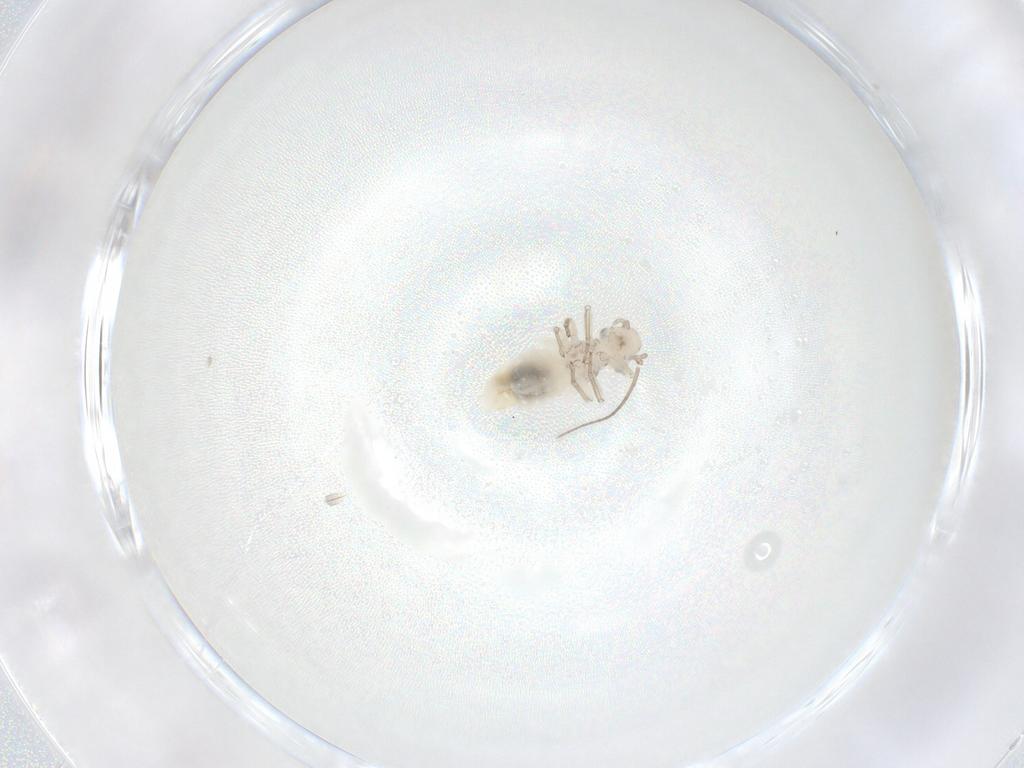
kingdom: Animalia
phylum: Arthropoda
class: Insecta
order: Psocodea
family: Caeciliusidae
